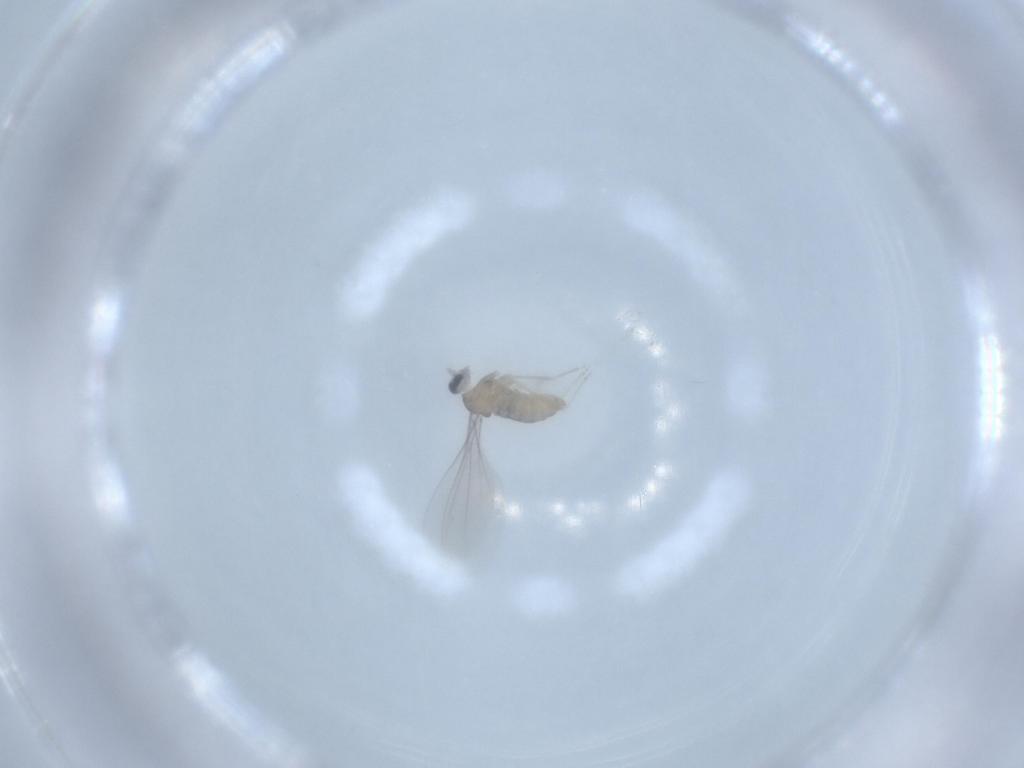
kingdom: Animalia
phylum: Arthropoda
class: Insecta
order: Diptera
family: Cecidomyiidae
